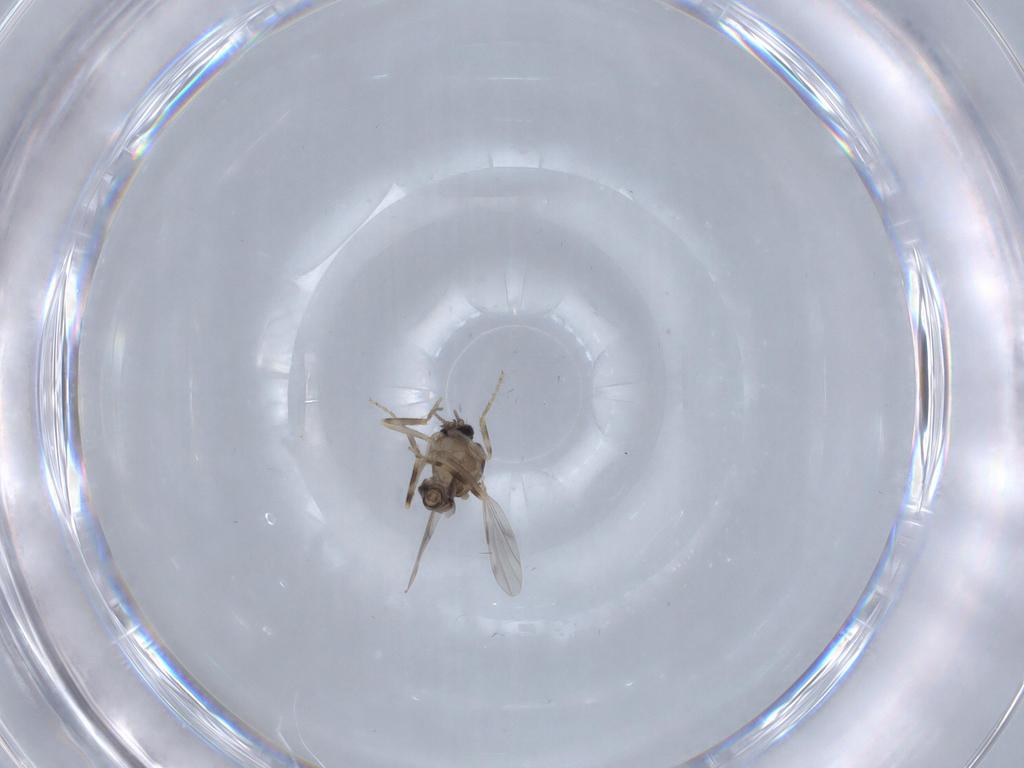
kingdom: Animalia
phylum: Arthropoda
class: Insecta
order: Diptera
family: Ceratopogonidae
